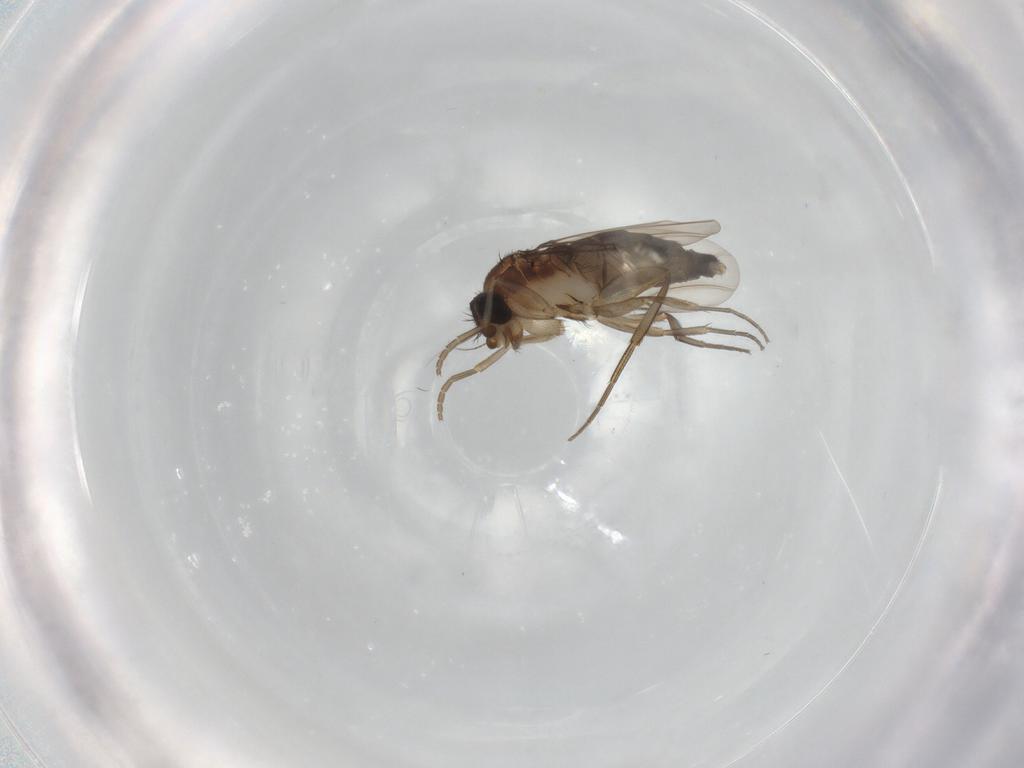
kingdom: Animalia
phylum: Arthropoda
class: Insecta
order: Diptera
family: Phoridae
